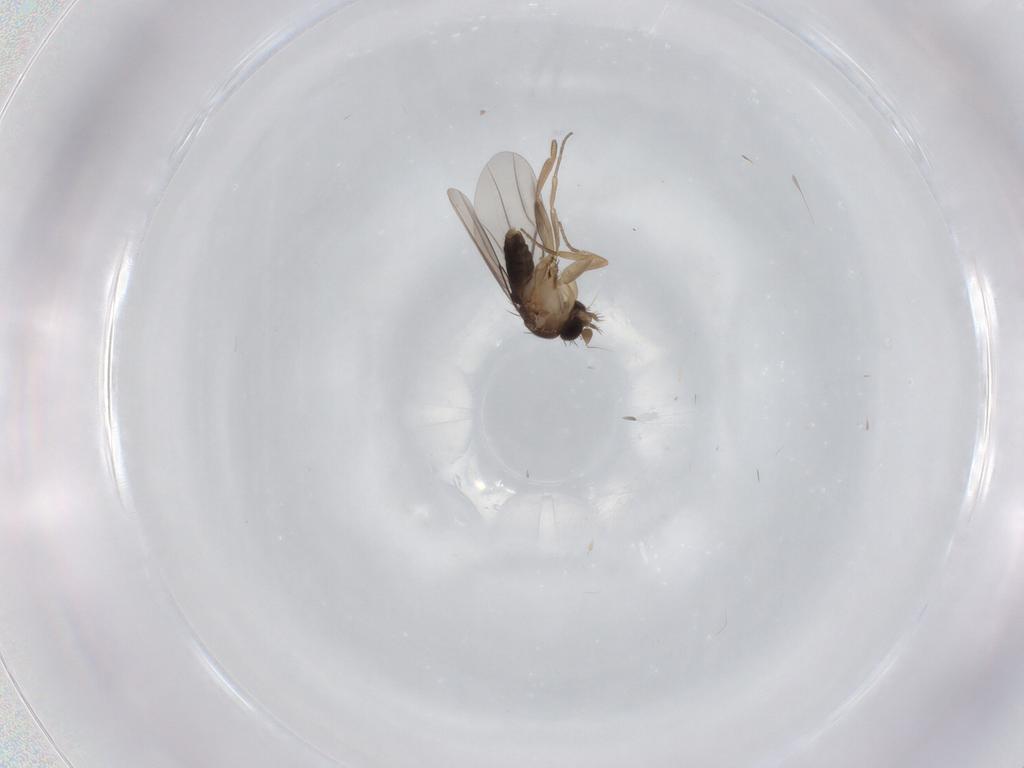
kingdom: Animalia
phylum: Arthropoda
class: Insecta
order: Diptera
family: Phoridae
